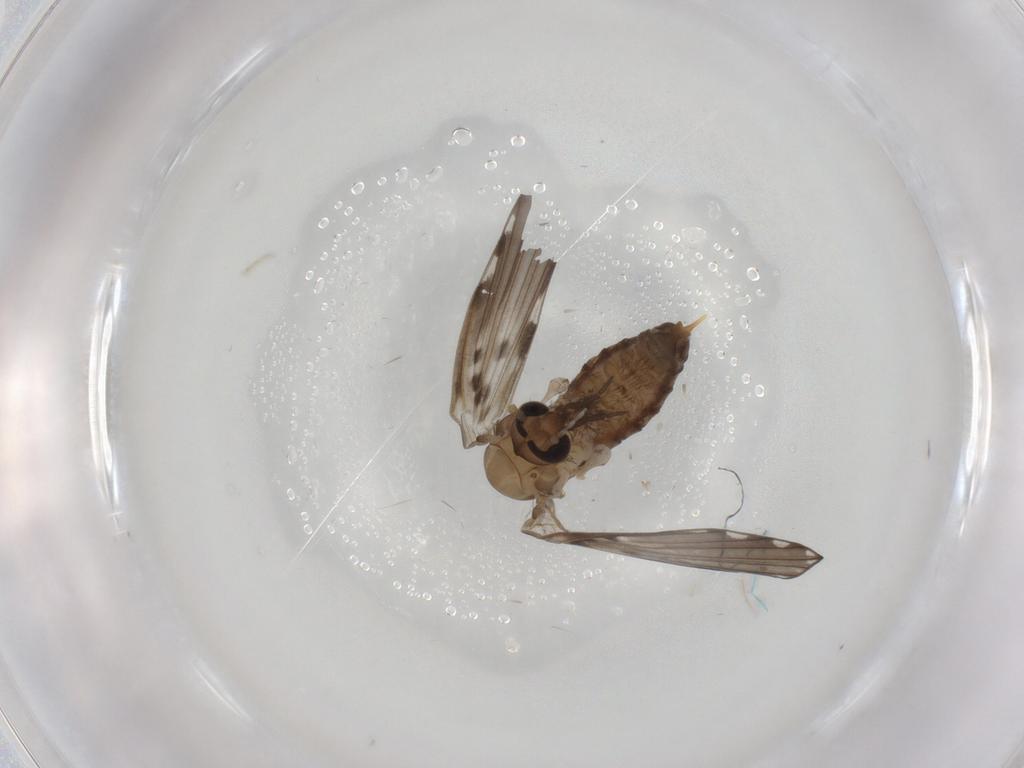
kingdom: Animalia
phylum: Arthropoda
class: Insecta
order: Diptera
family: Psychodidae
